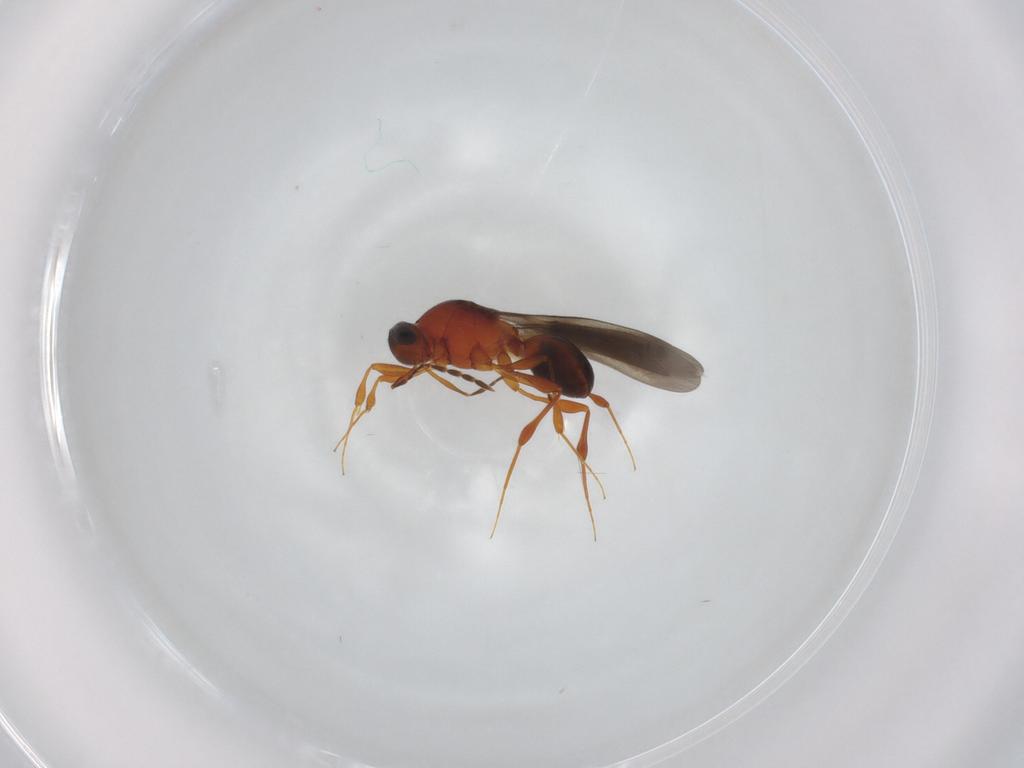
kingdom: Animalia
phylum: Arthropoda
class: Insecta
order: Hymenoptera
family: Platygastridae
